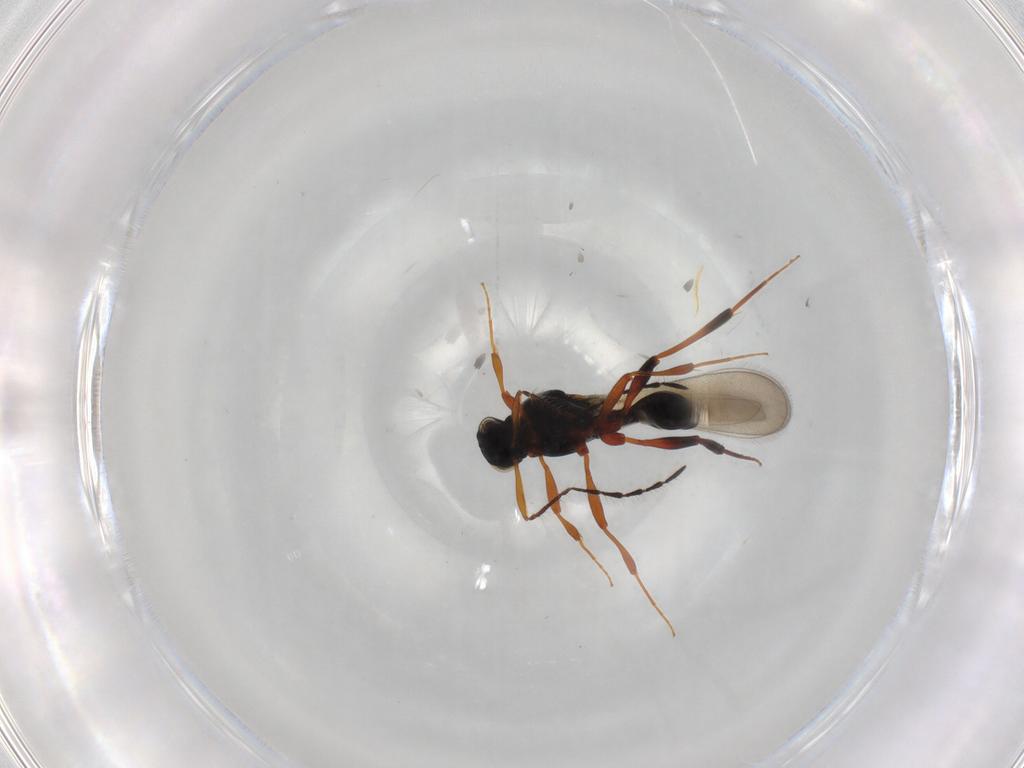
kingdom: Animalia
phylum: Arthropoda
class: Insecta
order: Hymenoptera
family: Platygastridae
